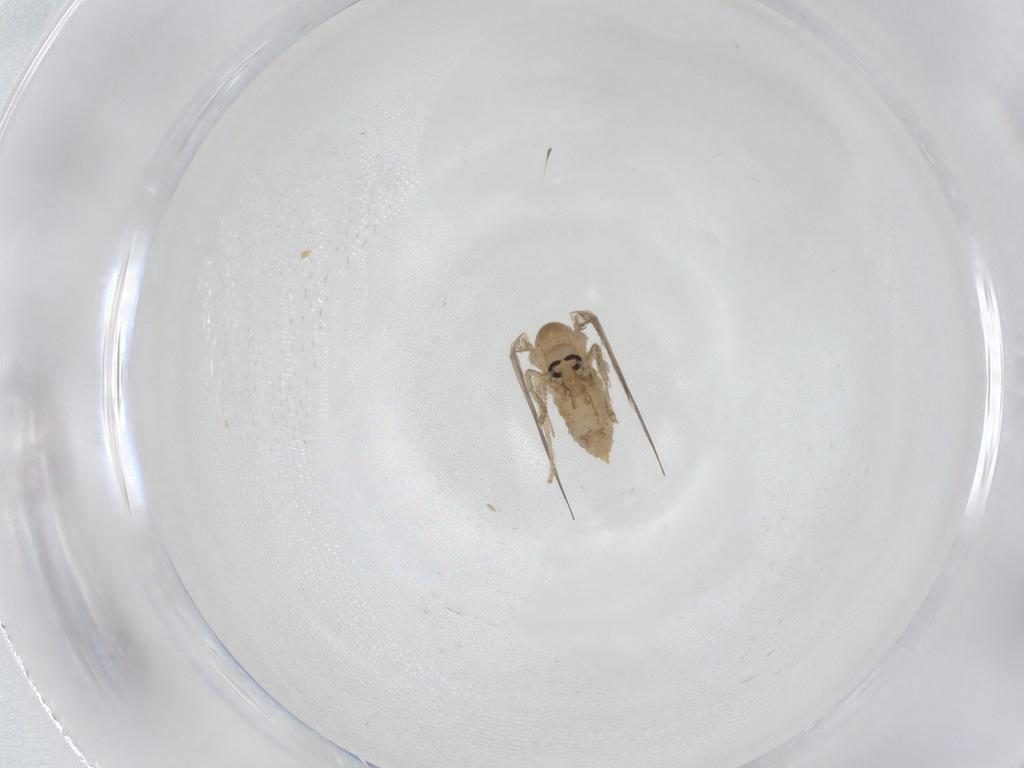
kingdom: Animalia
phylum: Arthropoda
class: Insecta
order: Diptera
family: Psychodidae
